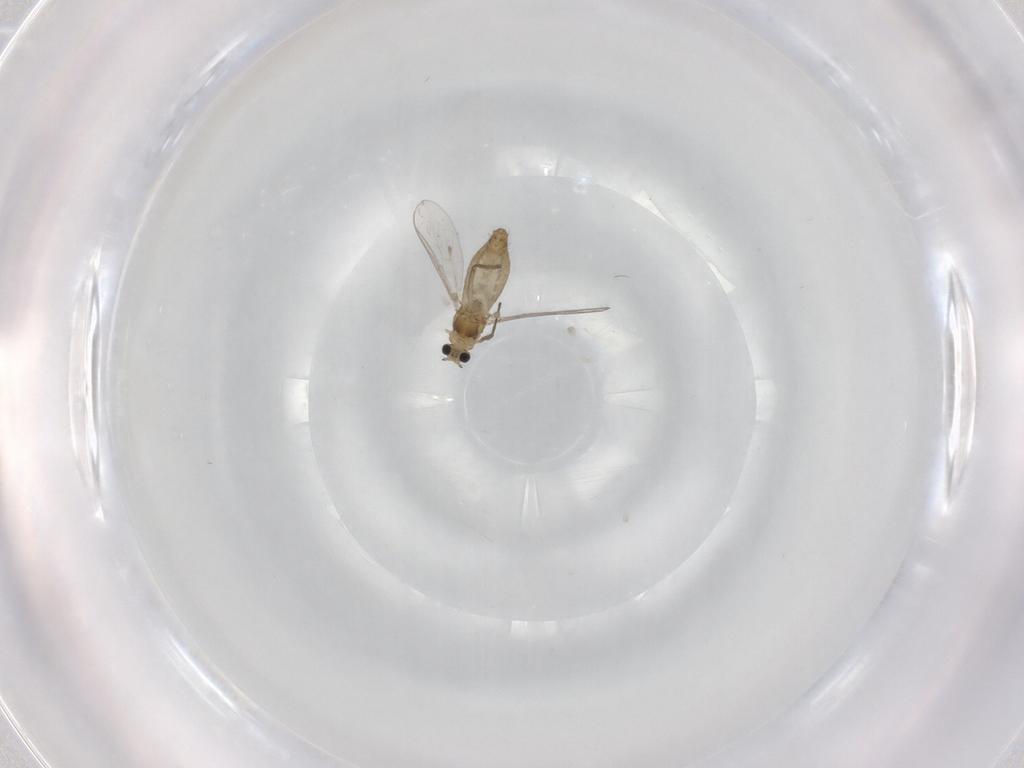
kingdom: Animalia
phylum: Arthropoda
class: Insecta
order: Diptera
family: Chironomidae
